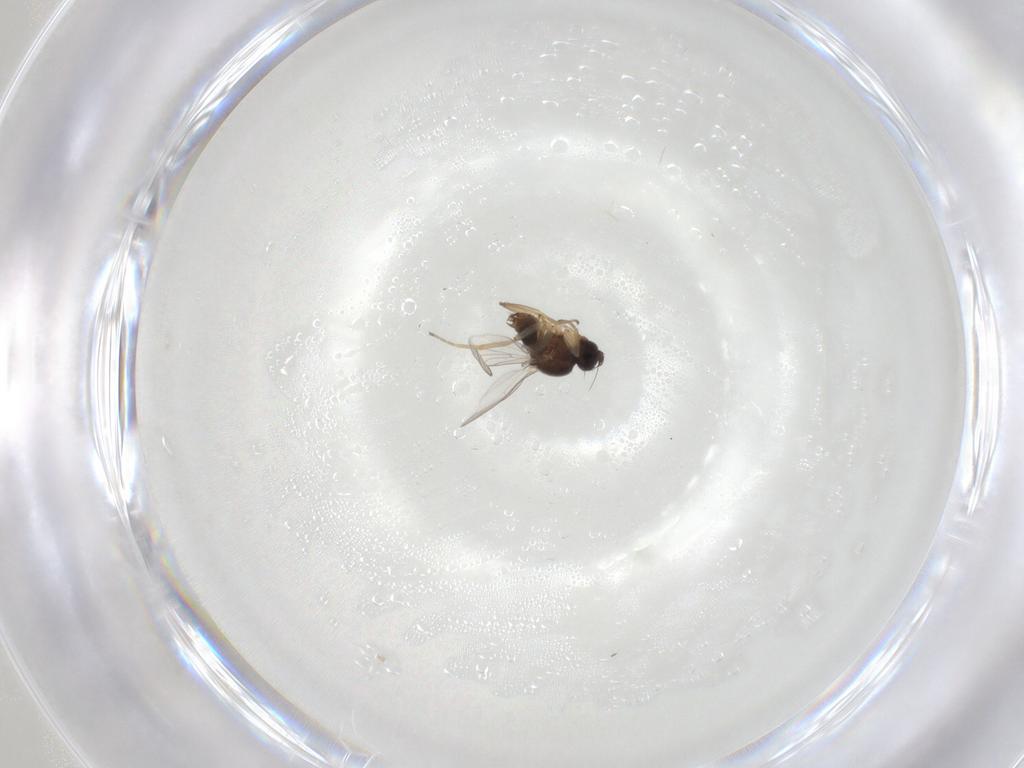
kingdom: Animalia
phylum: Arthropoda
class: Insecta
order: Diptera
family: Hybotidae
